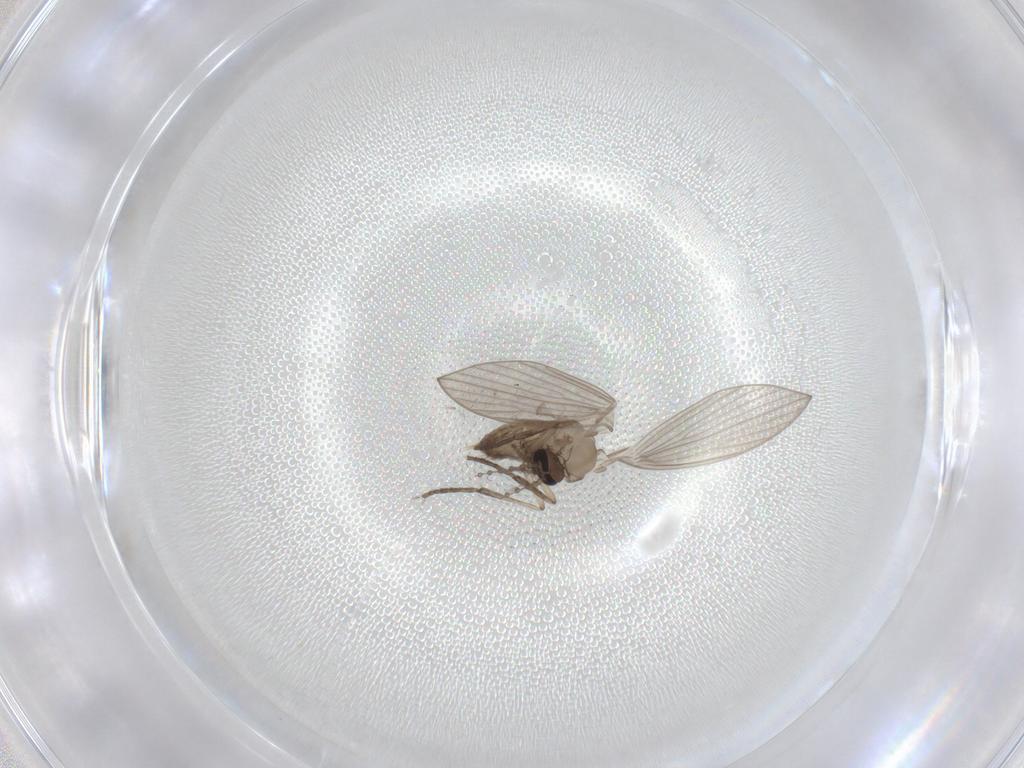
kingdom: Animalia
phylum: Arthropoda
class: Insecta
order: Diptera
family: Psychodidae
